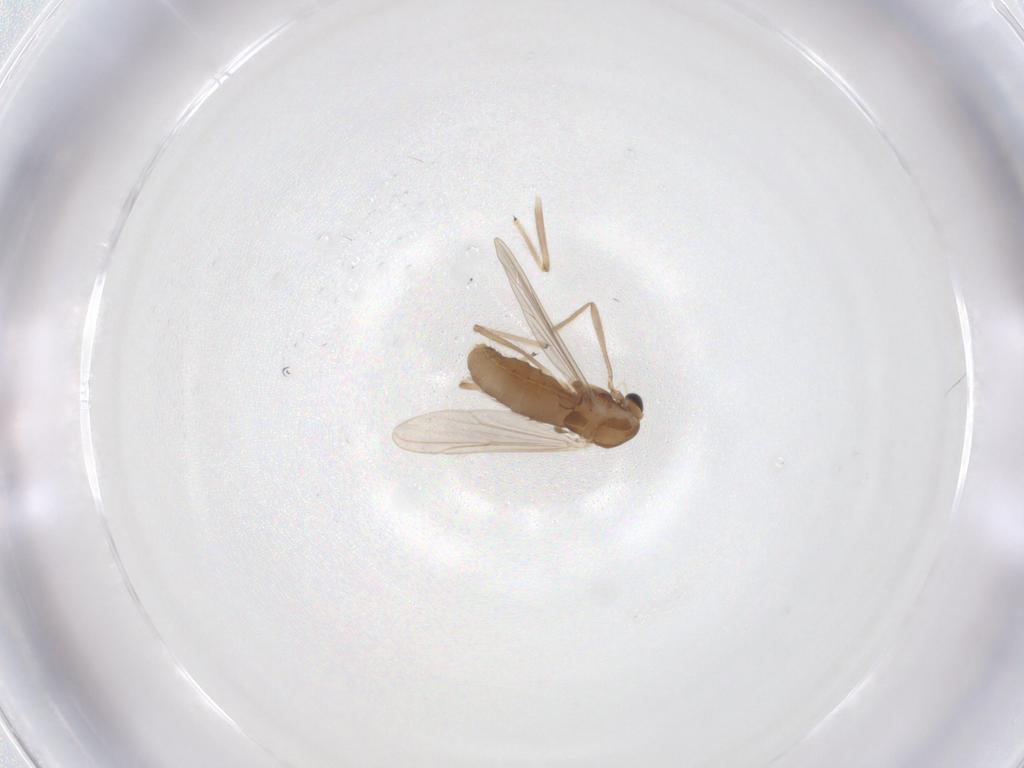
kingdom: Animalia
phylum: Arthropoda
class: Insecta
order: Diptera
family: Chironomidae
